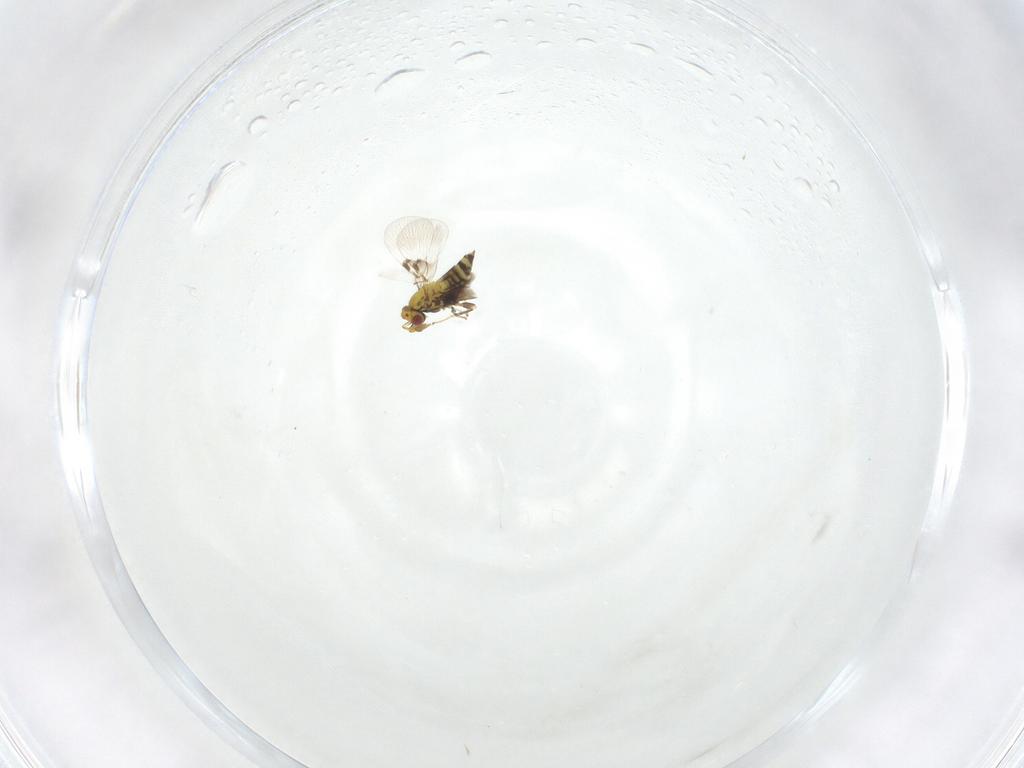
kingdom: Animalia
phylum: Arthropoda
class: Insecta
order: Hymenoptera
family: Trichogrammatidae
